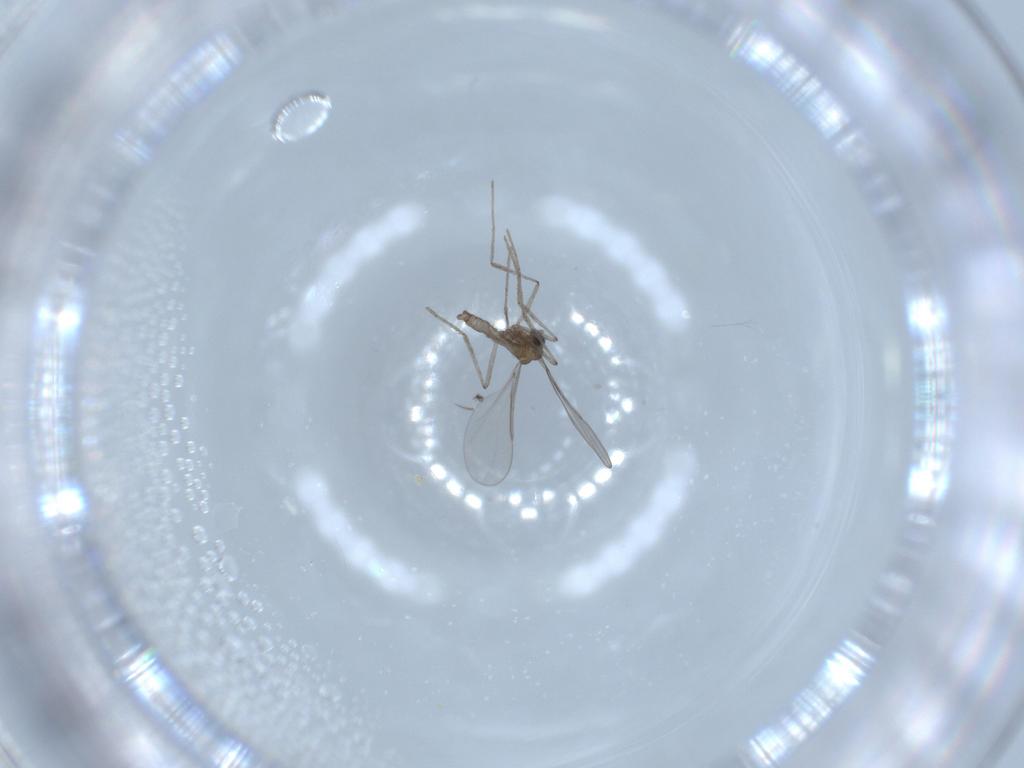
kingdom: Animalia
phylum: Arthropoda
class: Insecta
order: Diptera
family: Cecidomyiidae
